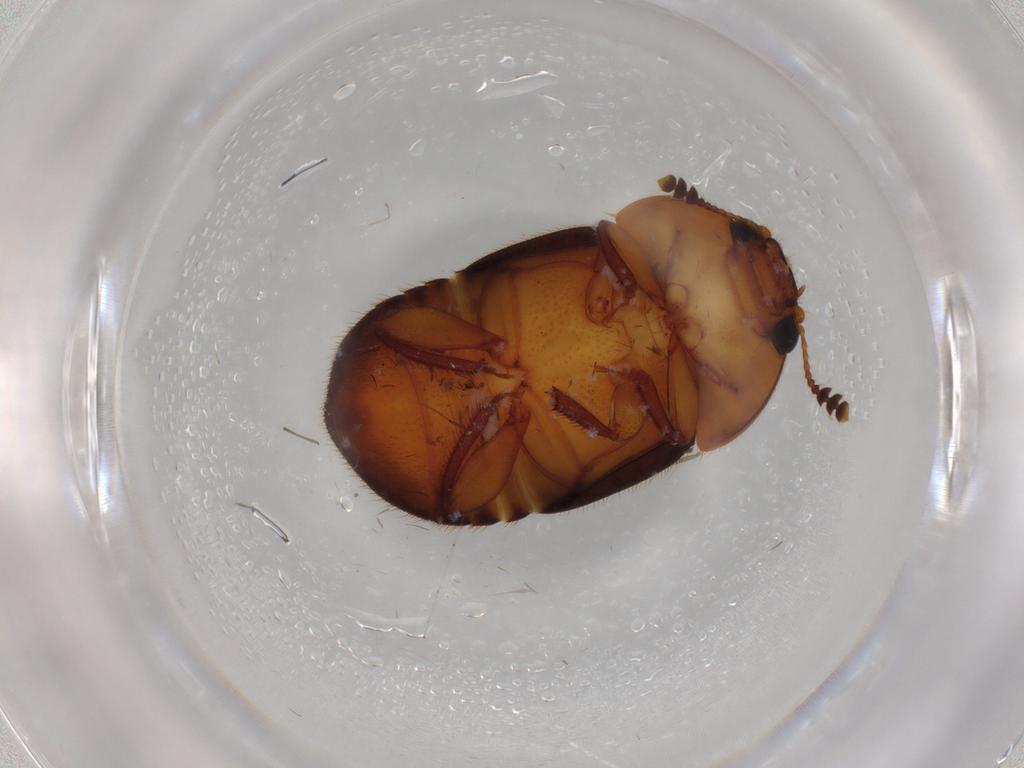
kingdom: Animalia
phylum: Arthropoda
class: Insecta
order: Coleoptera
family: Nitidulidae
